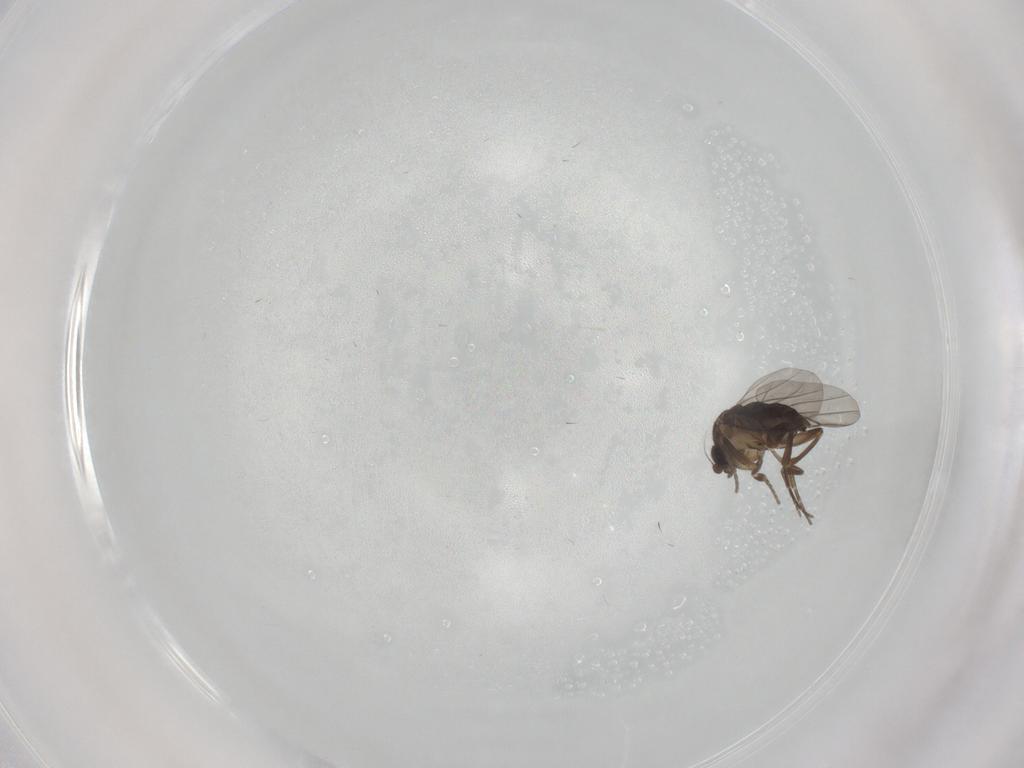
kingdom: Animalia
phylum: Arthropoda
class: Insecta
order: Diptera
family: Phoridae
